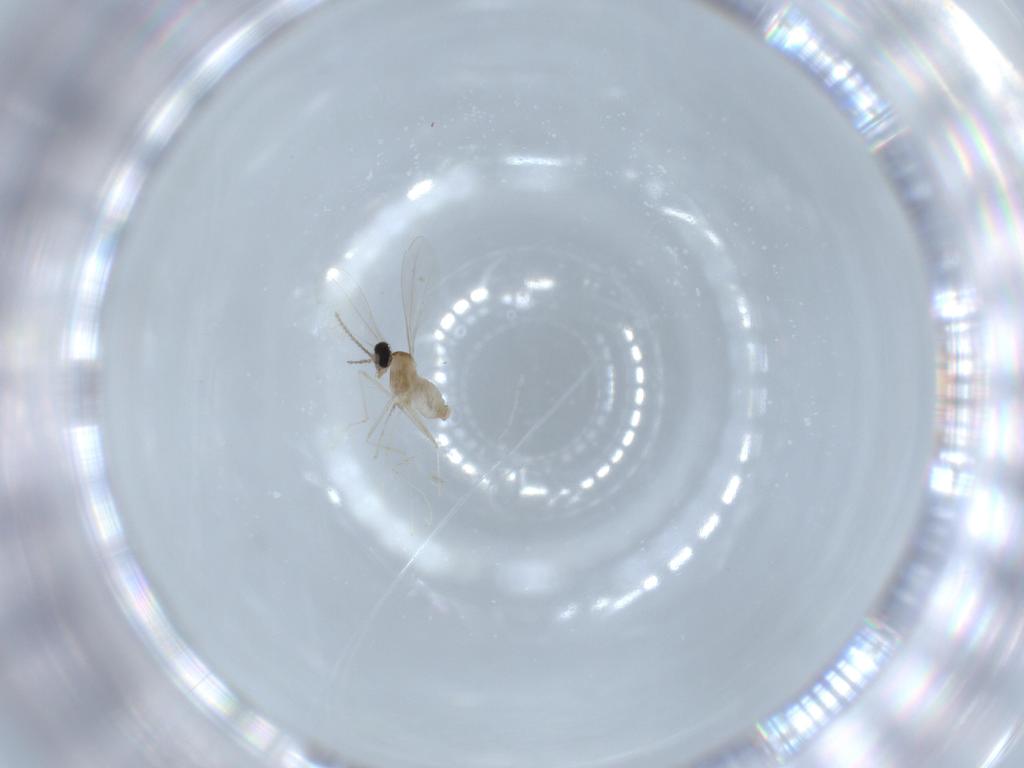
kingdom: Animalia
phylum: Arthropoda
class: Insecta
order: Diptera
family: Cecidomyiidae
